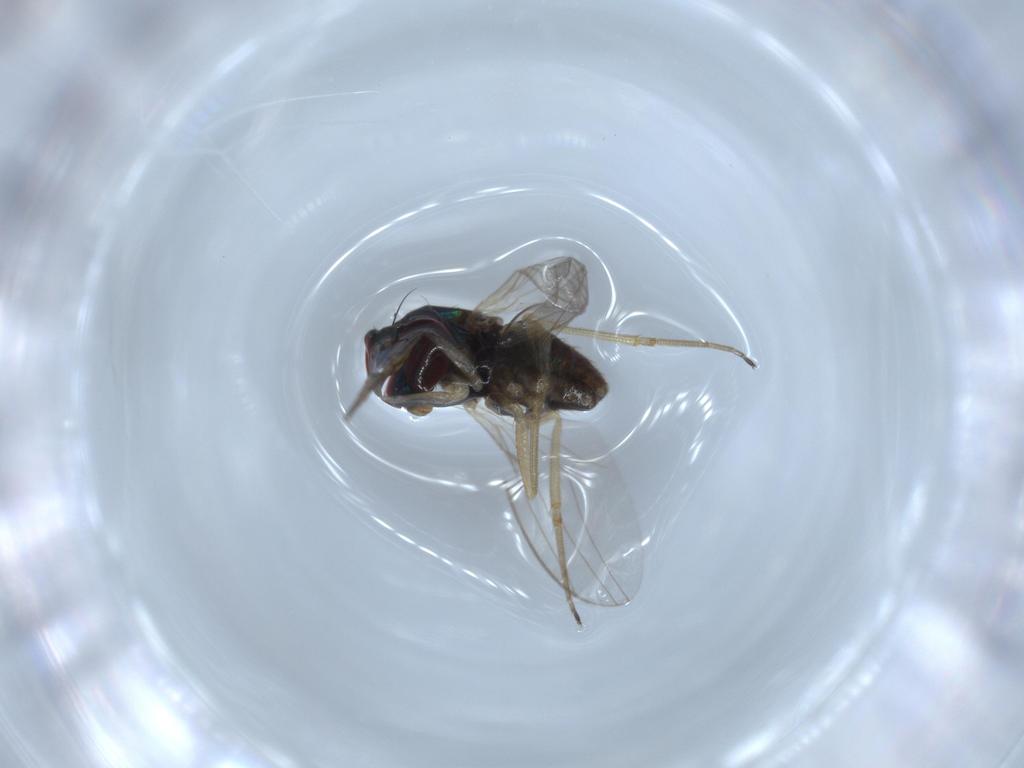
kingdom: Animalia
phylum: Arthropoda
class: Insecta
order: Diptera
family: Dolichopodidae
